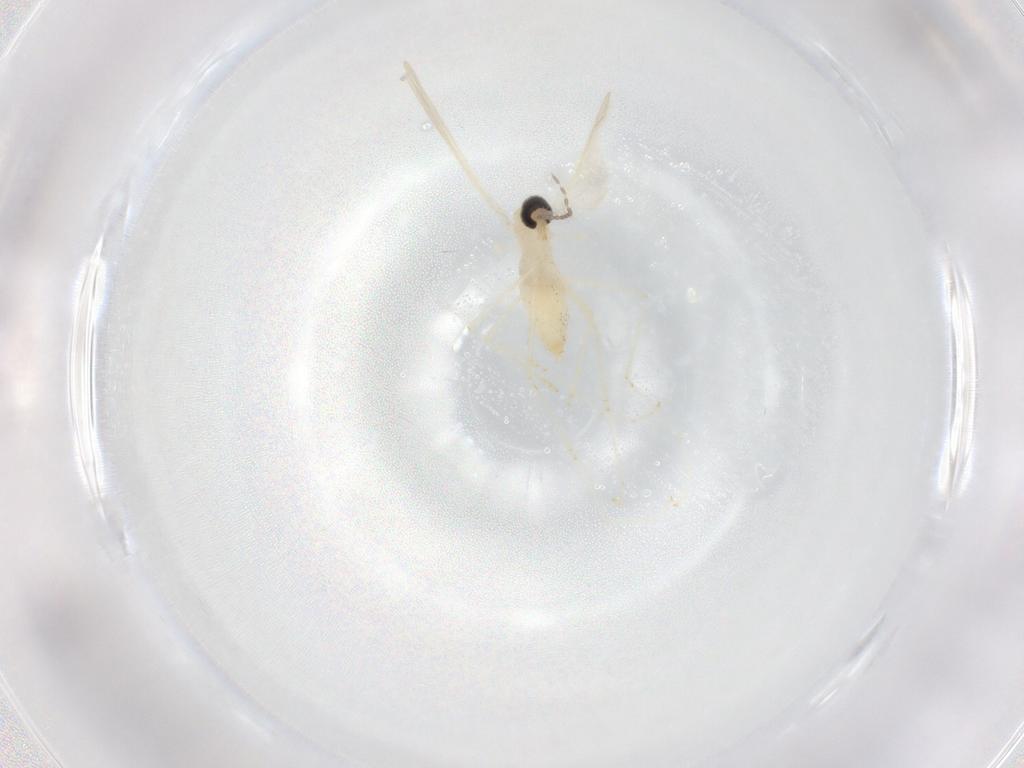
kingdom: Animalia
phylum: Arthropoda
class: Insecta
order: Diptera
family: Cecidomyiidae
